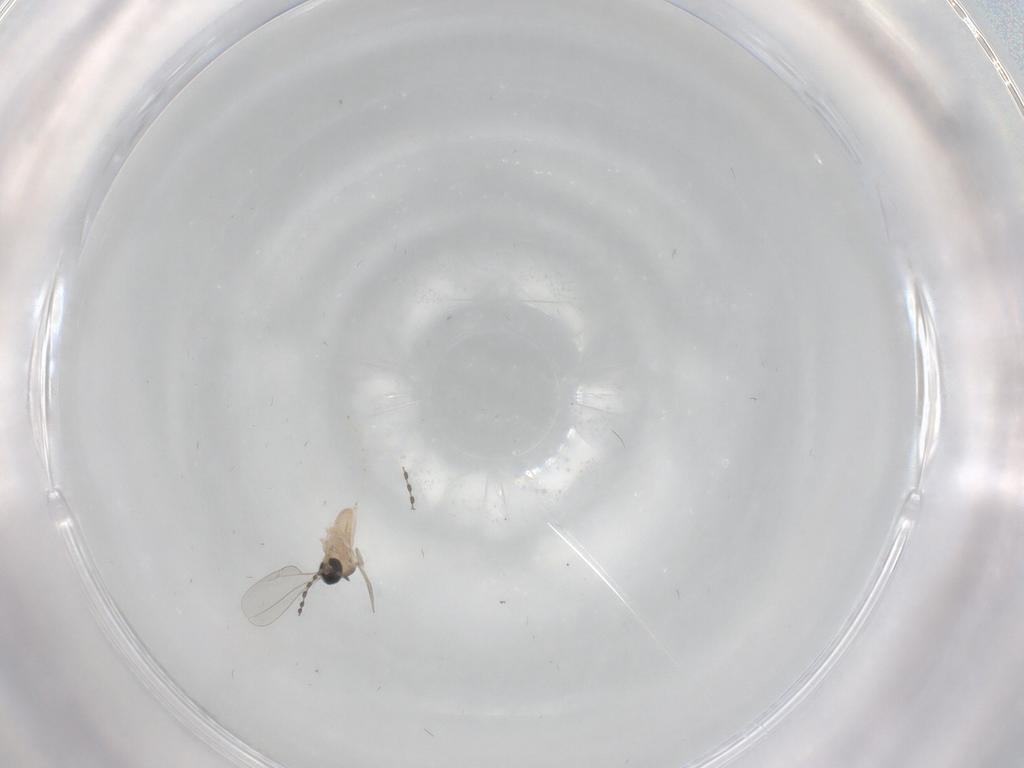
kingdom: Animalia
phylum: Arthropoda
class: Insecta
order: Diptera
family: Cecidomyiidae
